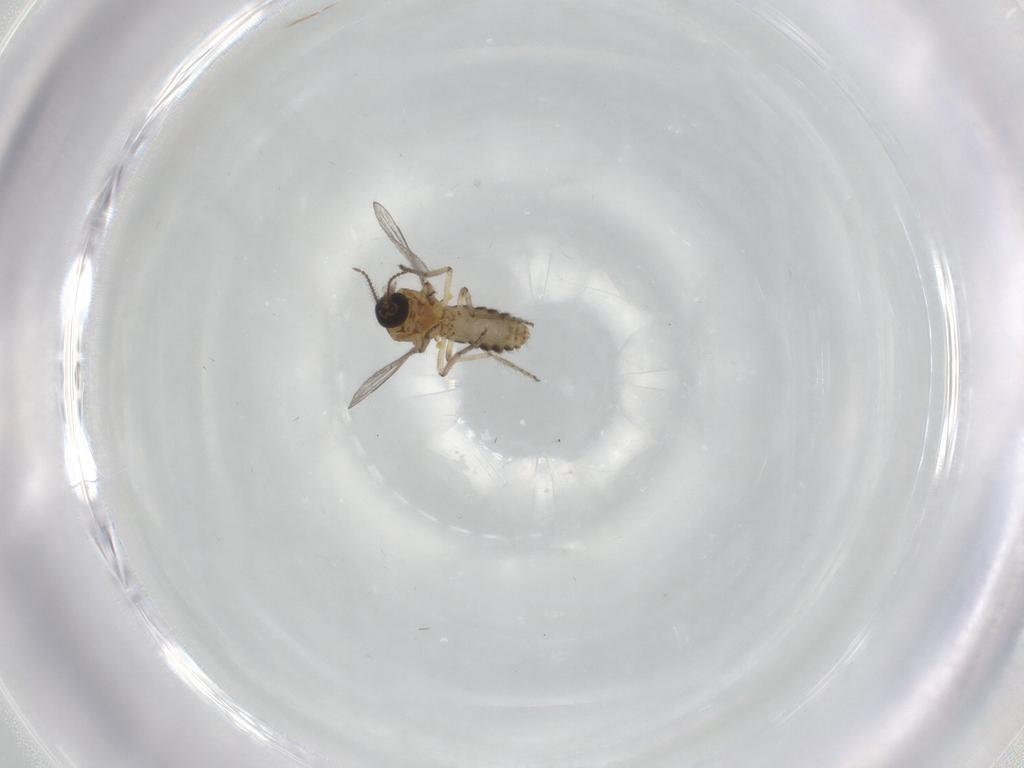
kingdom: Animalia
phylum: Arthropoda
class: Insecta
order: Diptera
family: Ceratopogonidae
